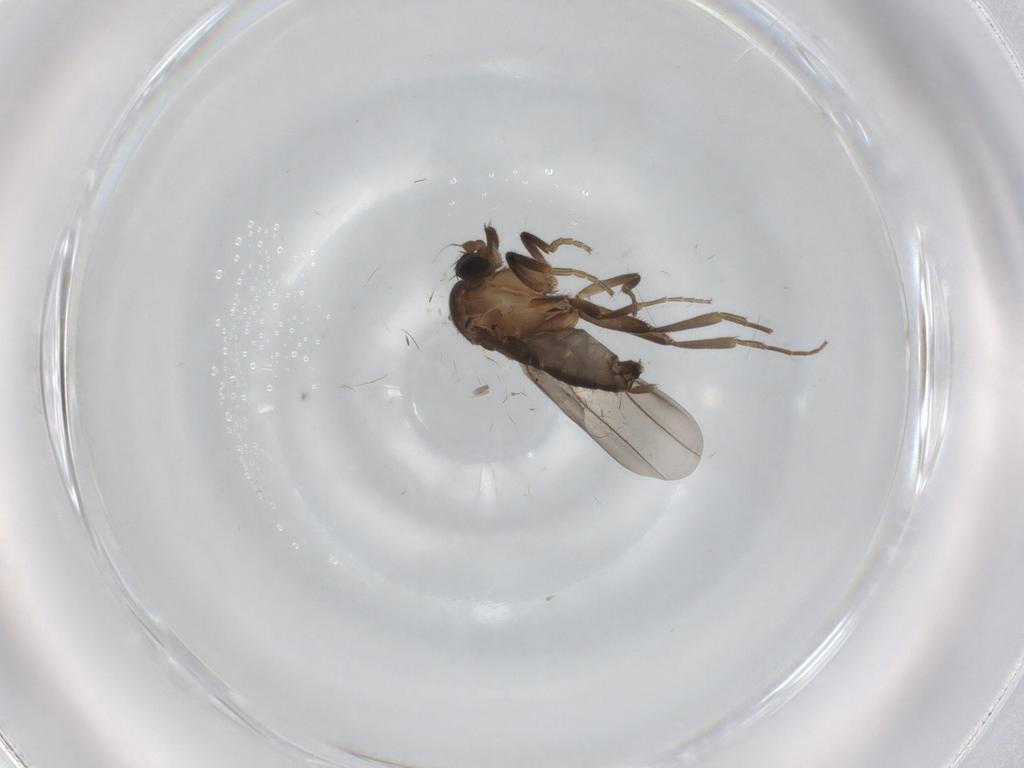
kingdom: Animalia
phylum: Arthropoda
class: Insecta
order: Diptera
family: Phoridae
